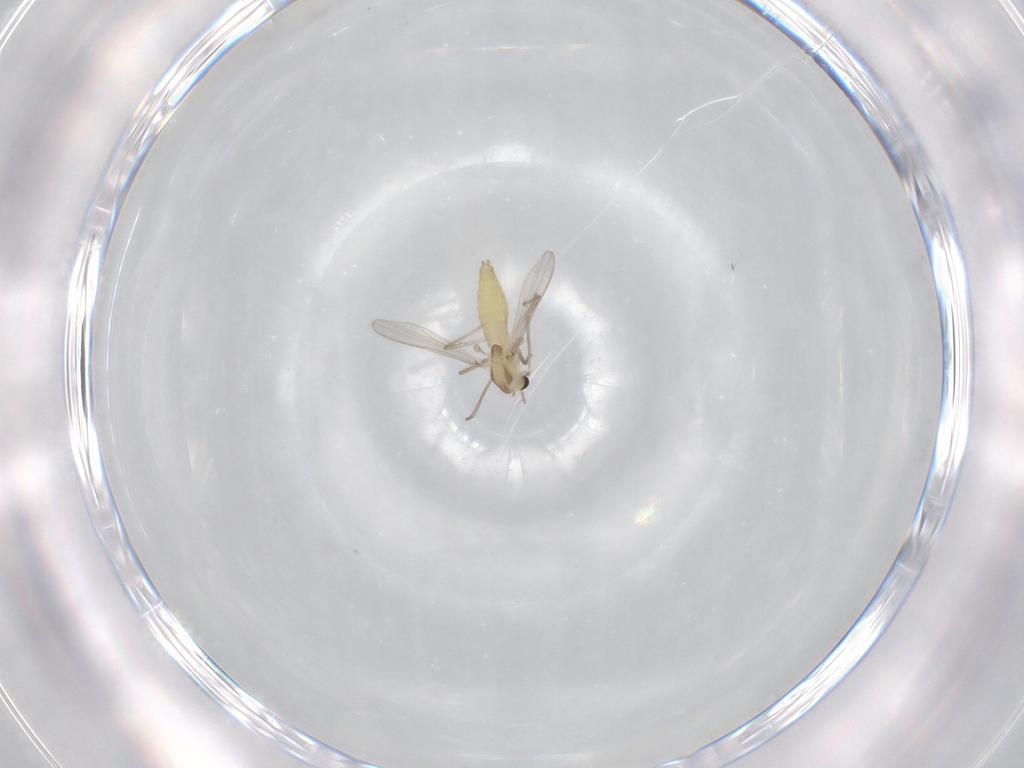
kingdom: Animalia
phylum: Arthropoda
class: Insecta
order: Diptera
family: Chironomidae
